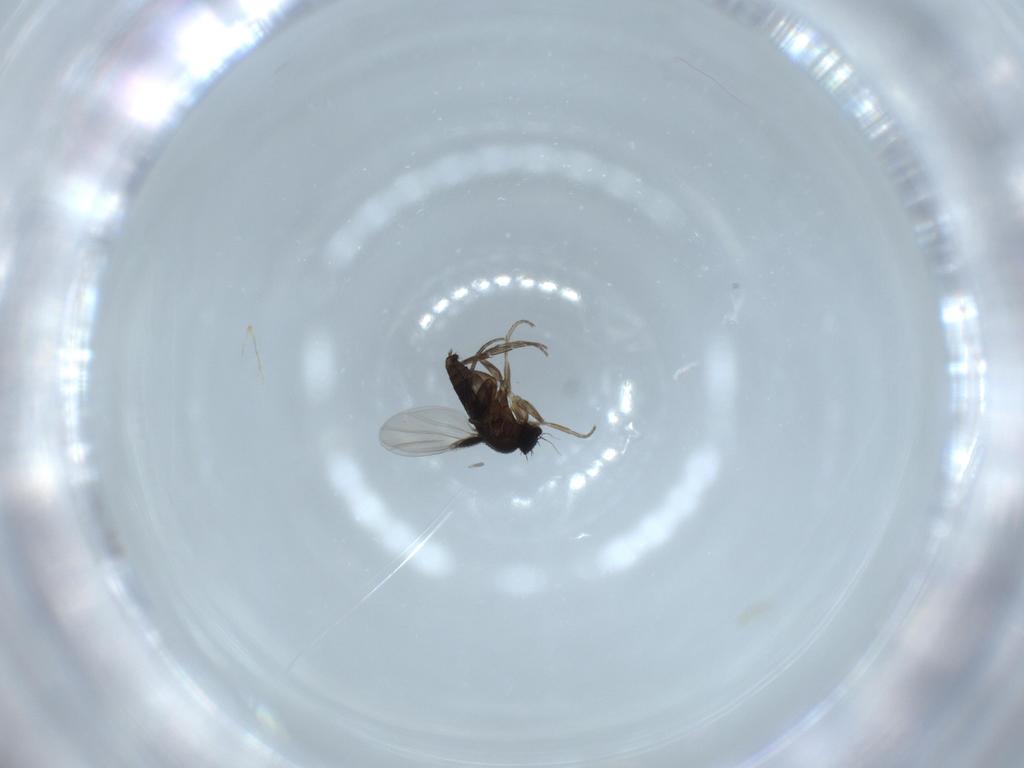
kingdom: Animalia
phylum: Arthropoda
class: Insecta
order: Diptera
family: Phoridae
